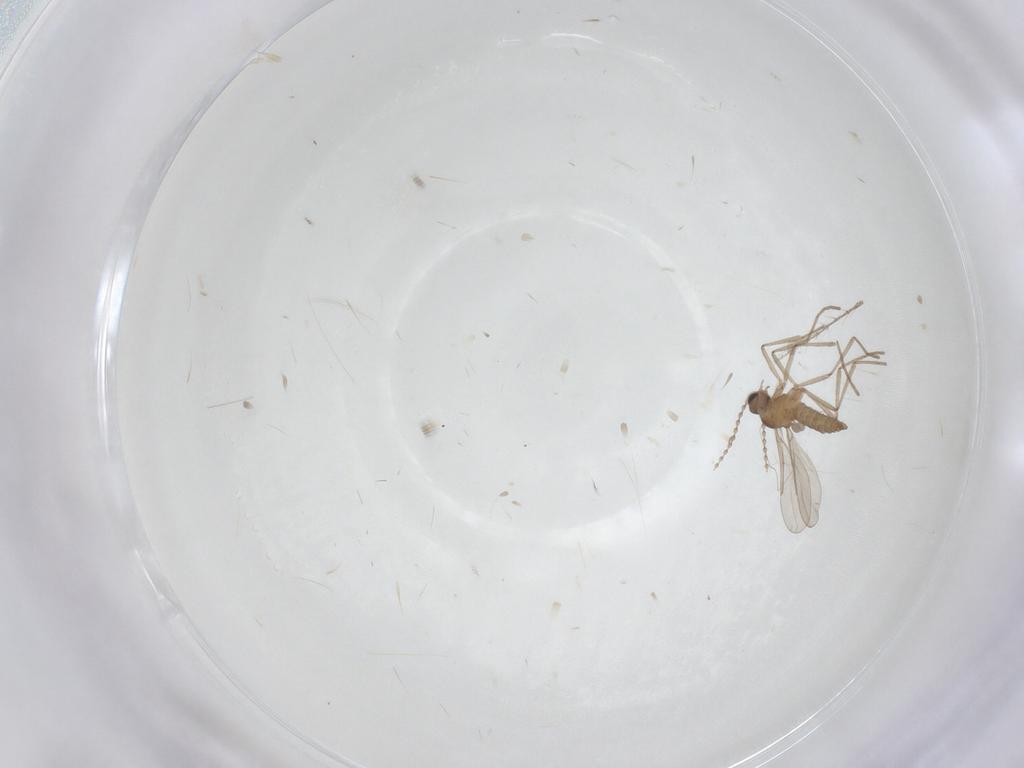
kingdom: Animalia
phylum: Arthropoda
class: Insecta
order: Diptera
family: Cecidomyiidae
